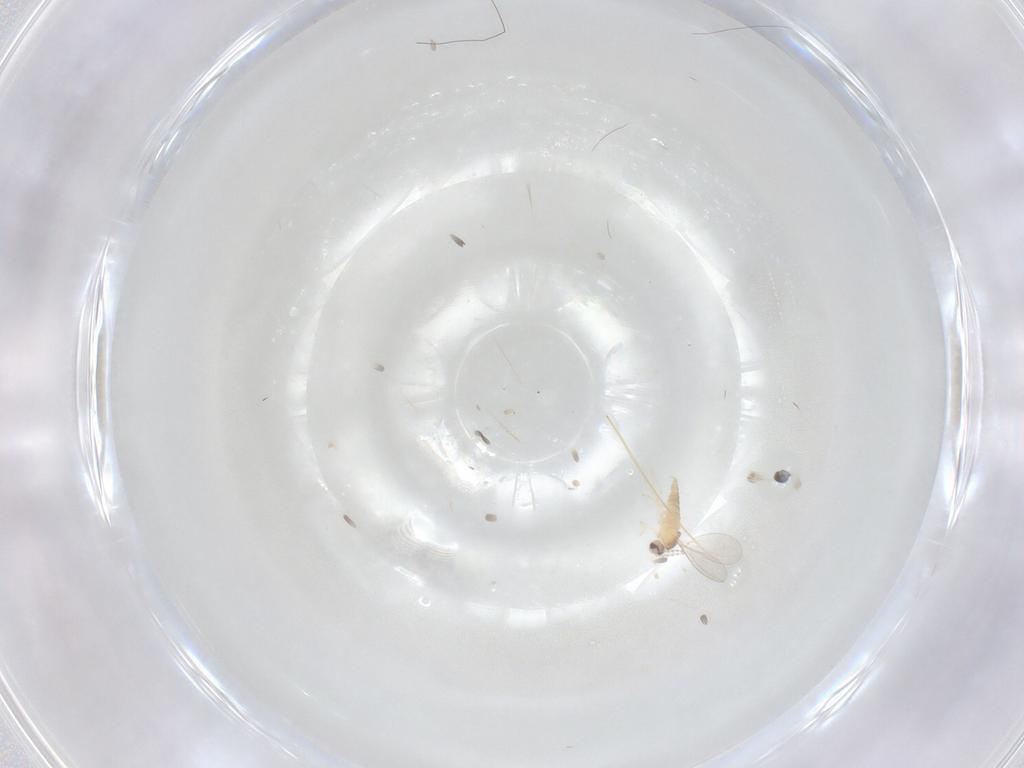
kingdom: Animalia
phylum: Arthropoda
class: Insecta
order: Diptera
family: Cecidomyiidae
